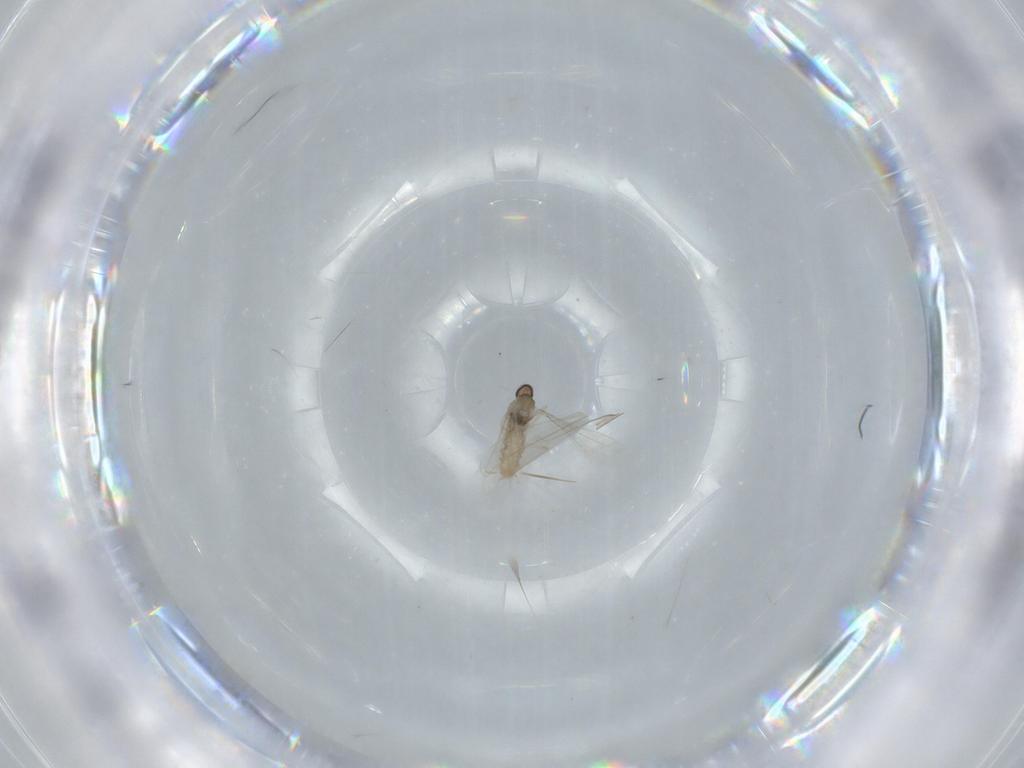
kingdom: Animalia
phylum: Arthropoda
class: Insecta
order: Diptera
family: Cecidomyiidae
